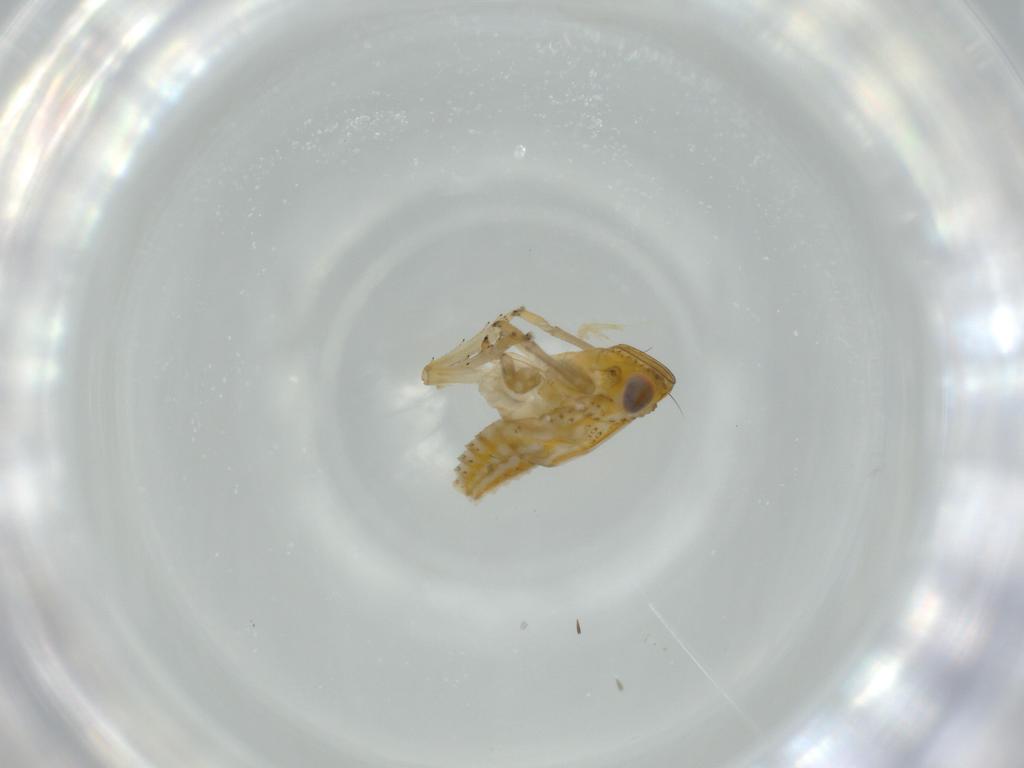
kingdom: Animalia
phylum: Arthropoda
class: Insecta
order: Hemiptera
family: Issidae
